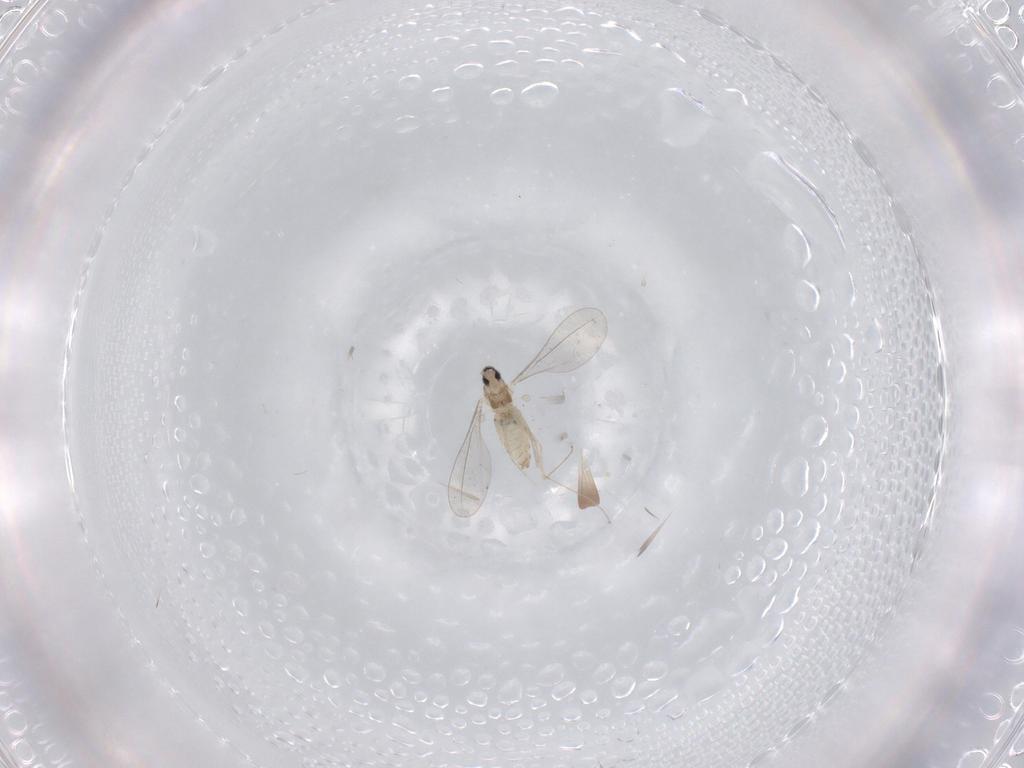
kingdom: Animalia
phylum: Arthropoda
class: Insecta
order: Diptera
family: Cecidomyiidae
